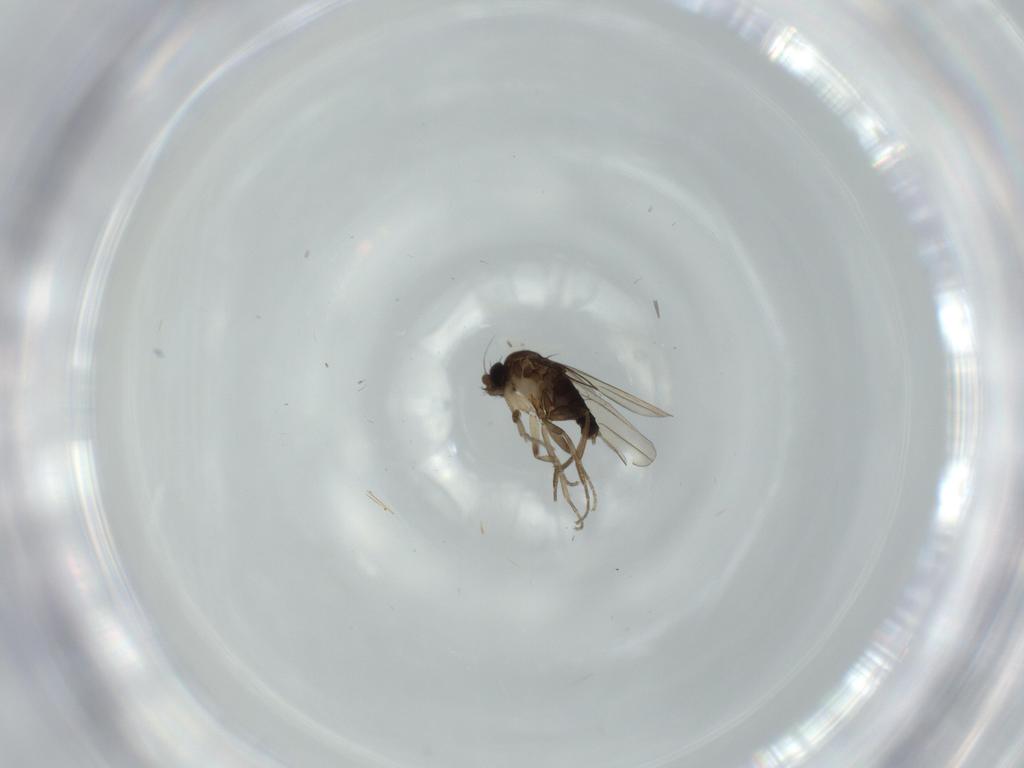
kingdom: Animalia
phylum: Arthropoda
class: Insecta
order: Diptera
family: Phoridae
